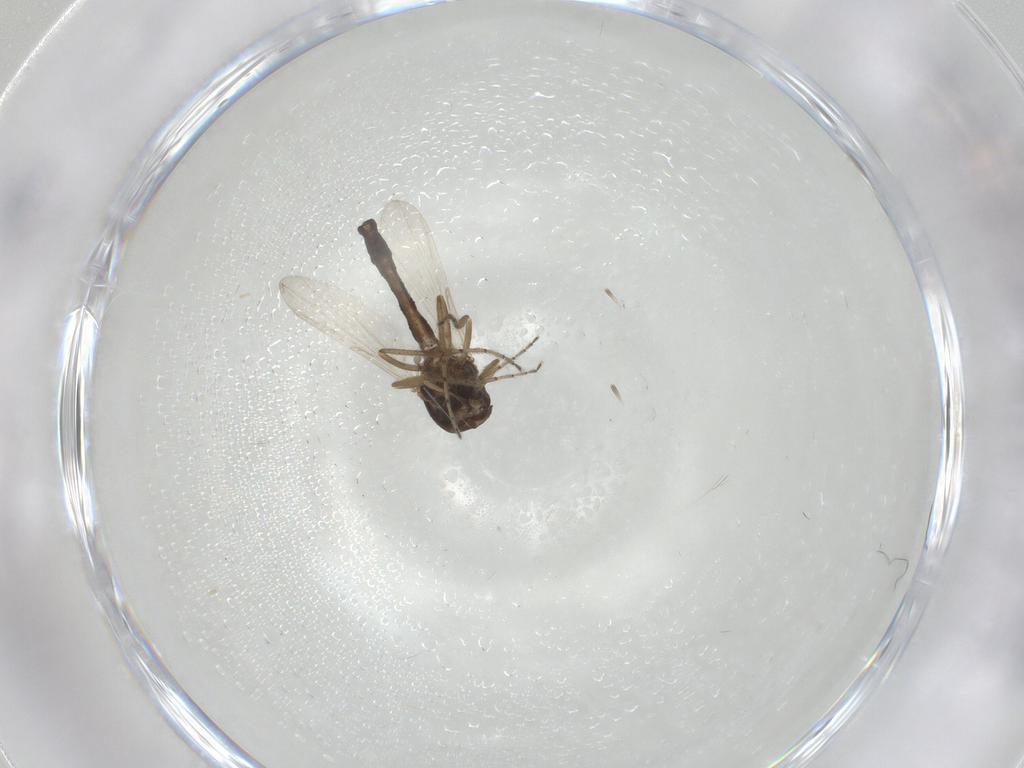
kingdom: Animalia
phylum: Arthropoda
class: Insecta
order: Diptera
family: Ceratopogonidae
